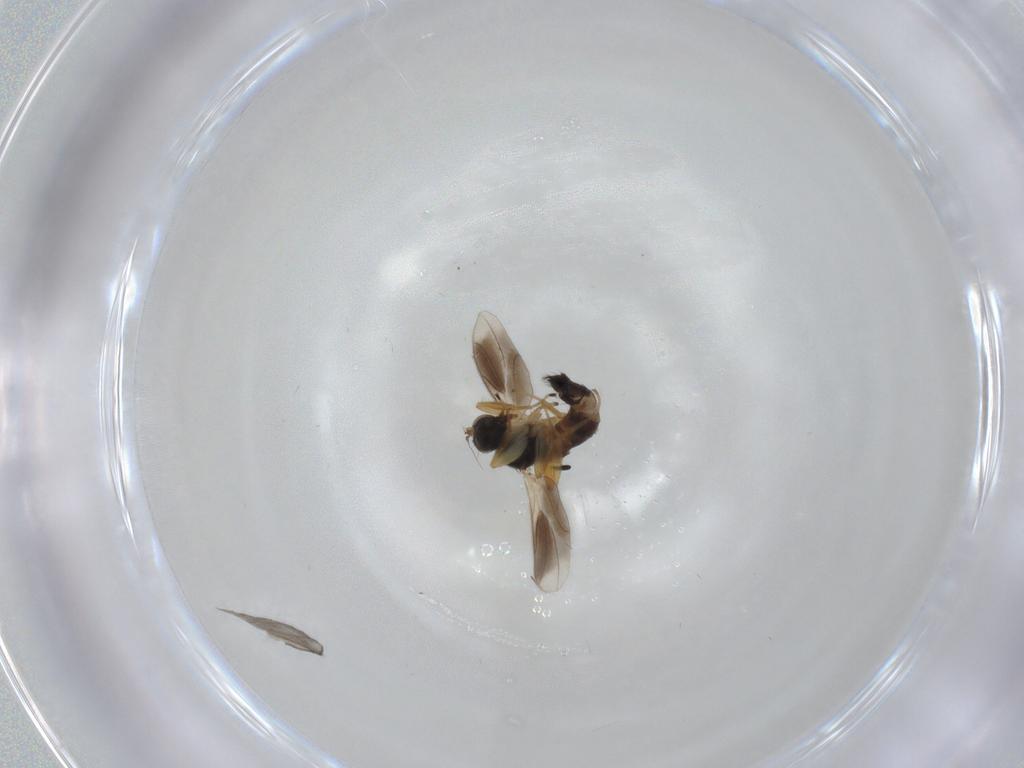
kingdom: Animalia
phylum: Arthropoda
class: Insecta
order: Diptera
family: Hybotidae
